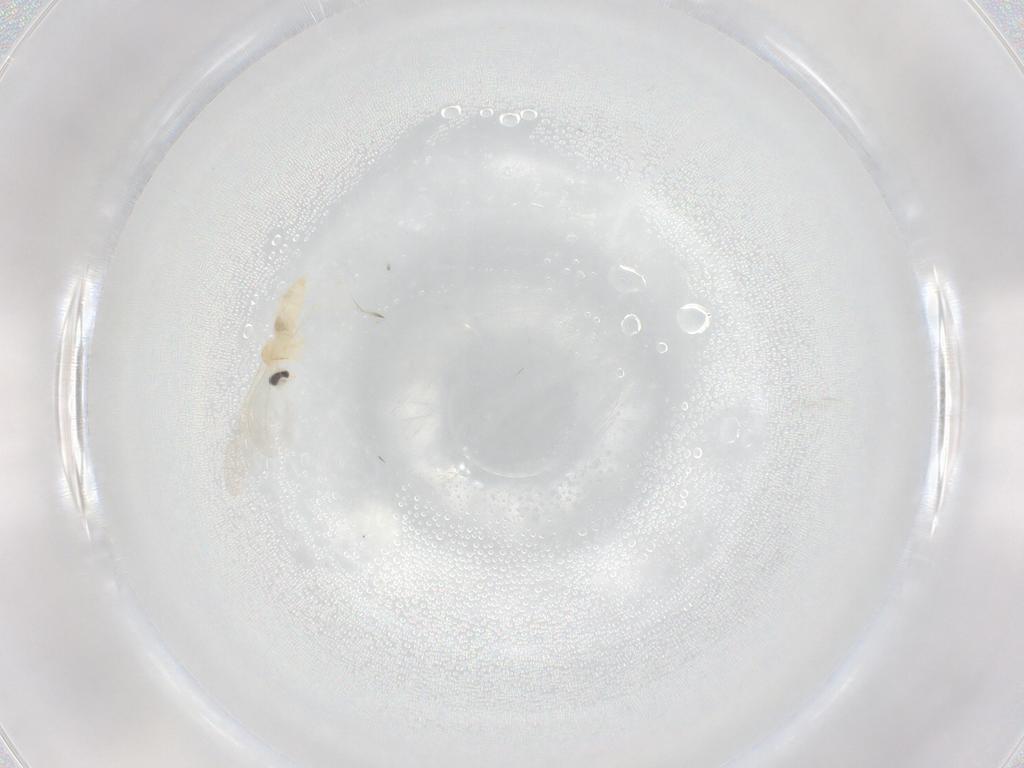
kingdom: Animalia
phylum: Arthropoda
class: Insecta
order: Diptera
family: Cecidomyiidae
